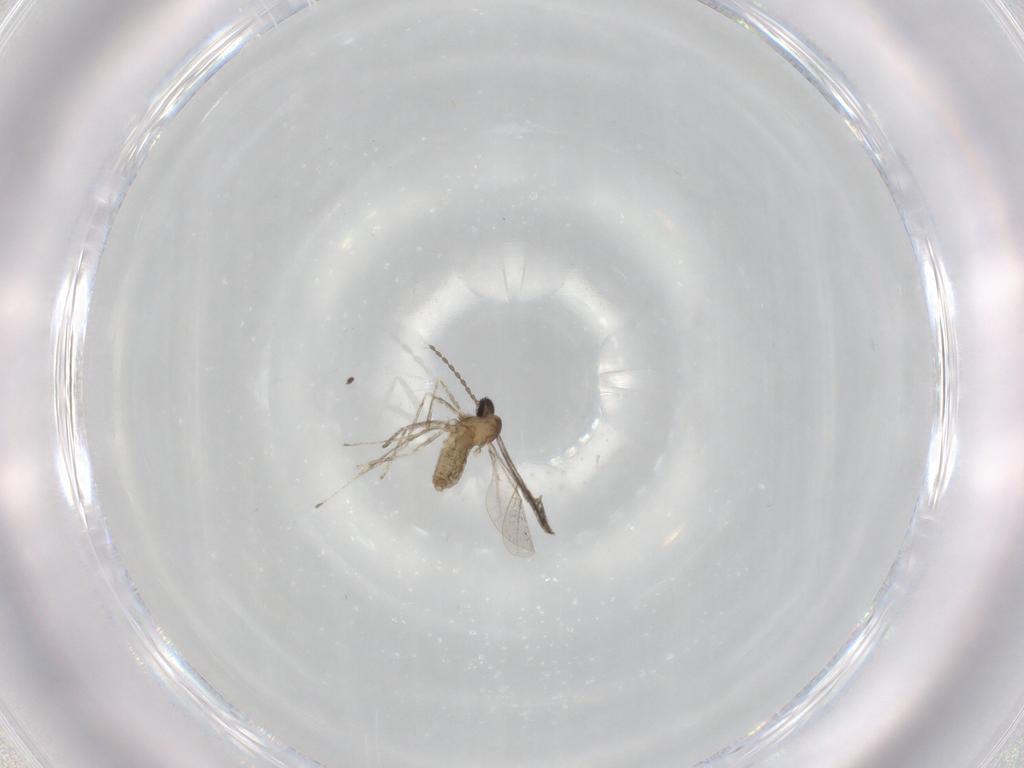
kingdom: Animalia
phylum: Arthropoda
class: Insecta
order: Diptera
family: Cecidomyiidae
